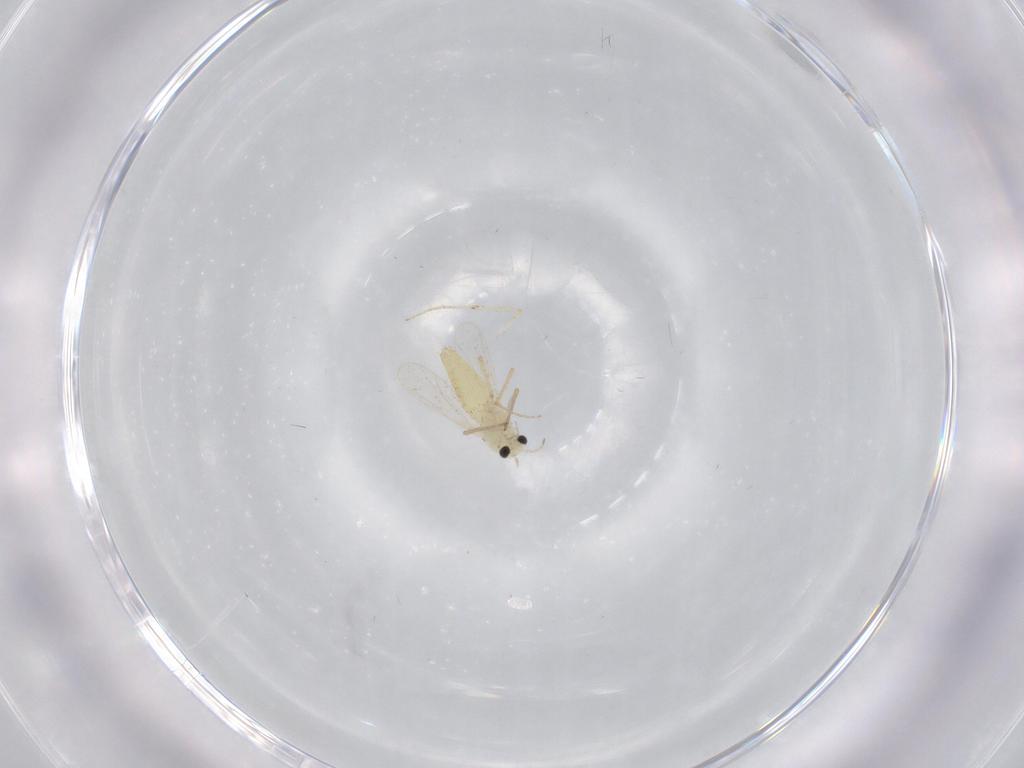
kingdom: Animalia
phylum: Arthropoda
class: Insecta
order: Diptera
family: Chironomidae
